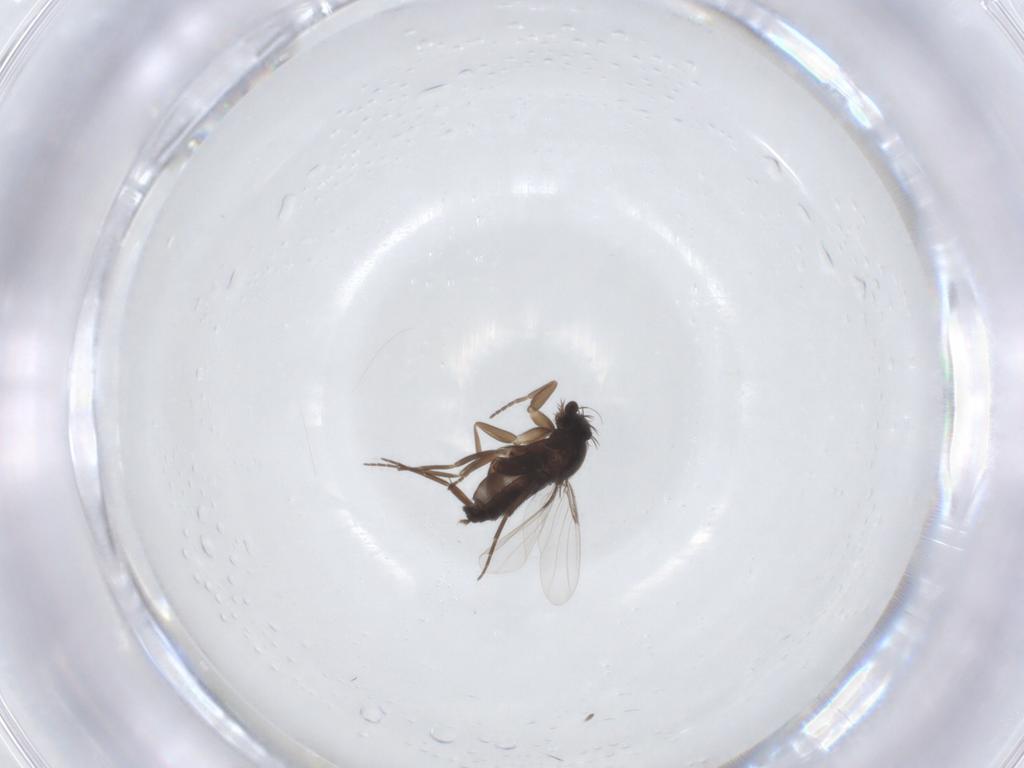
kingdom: Animalia
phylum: Arthropoda
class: Insecta
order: Diptera
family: Phoridae
